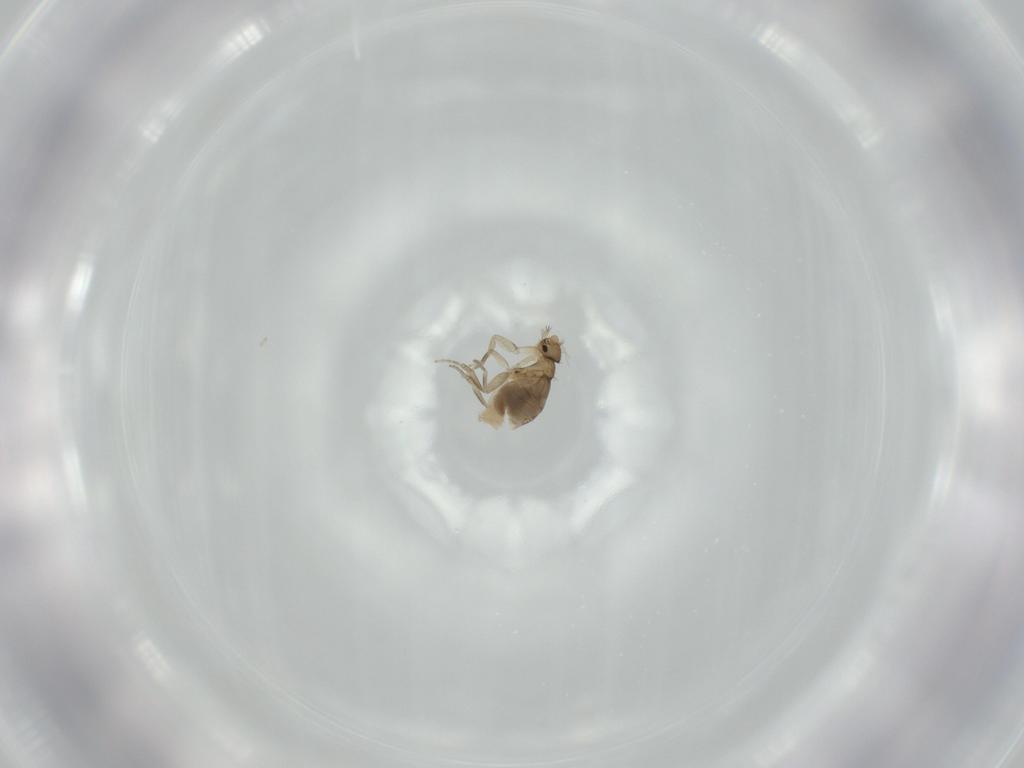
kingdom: Animalia
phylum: Arthropoda
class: Insecta
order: Diptera
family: Phoridae
